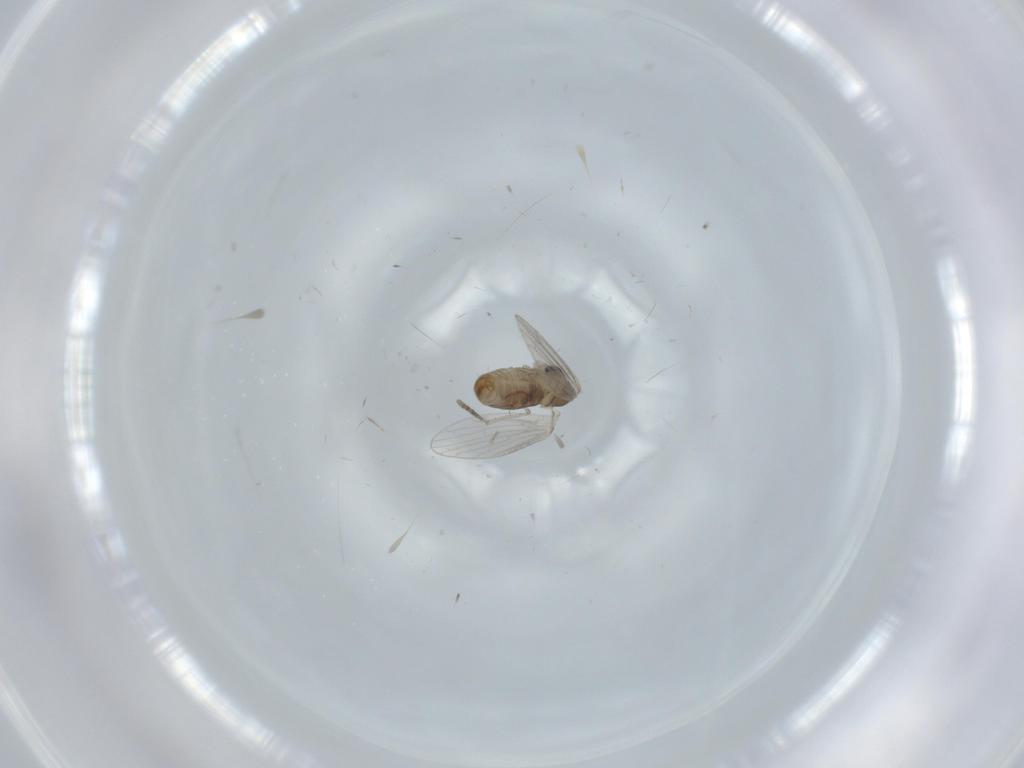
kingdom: Animalia
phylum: Arthropoda
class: Insecta
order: Diptera
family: Psychodidae
